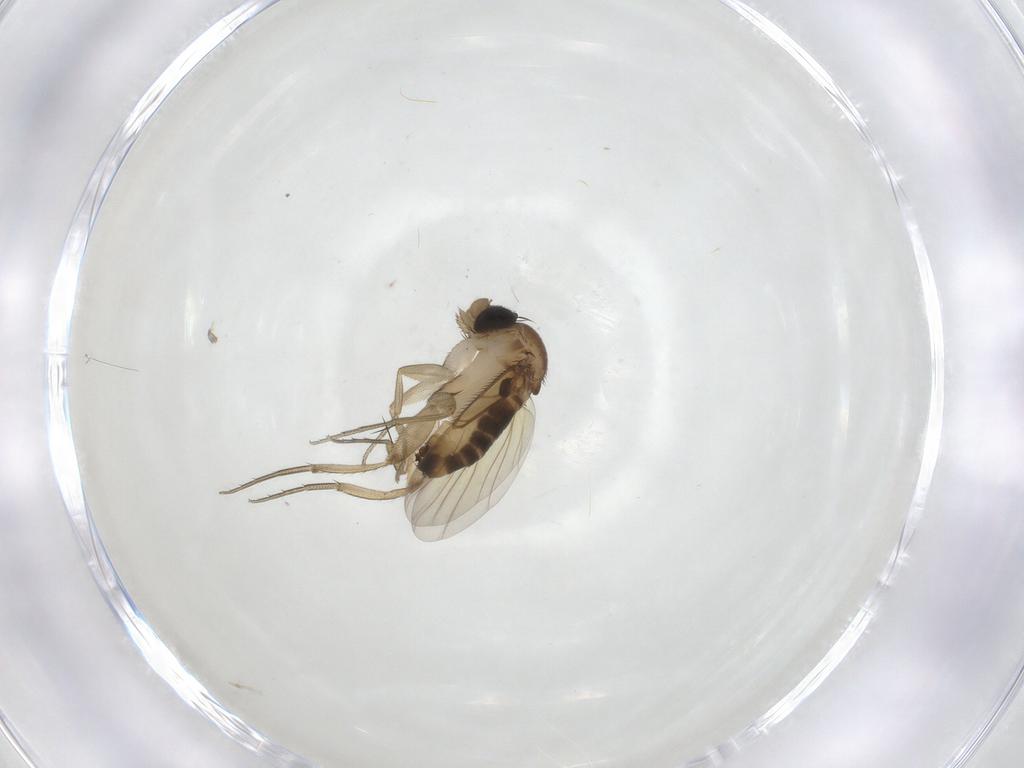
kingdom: Animalia
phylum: Arthropoda
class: Insecta
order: Diptera
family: Phoridae
